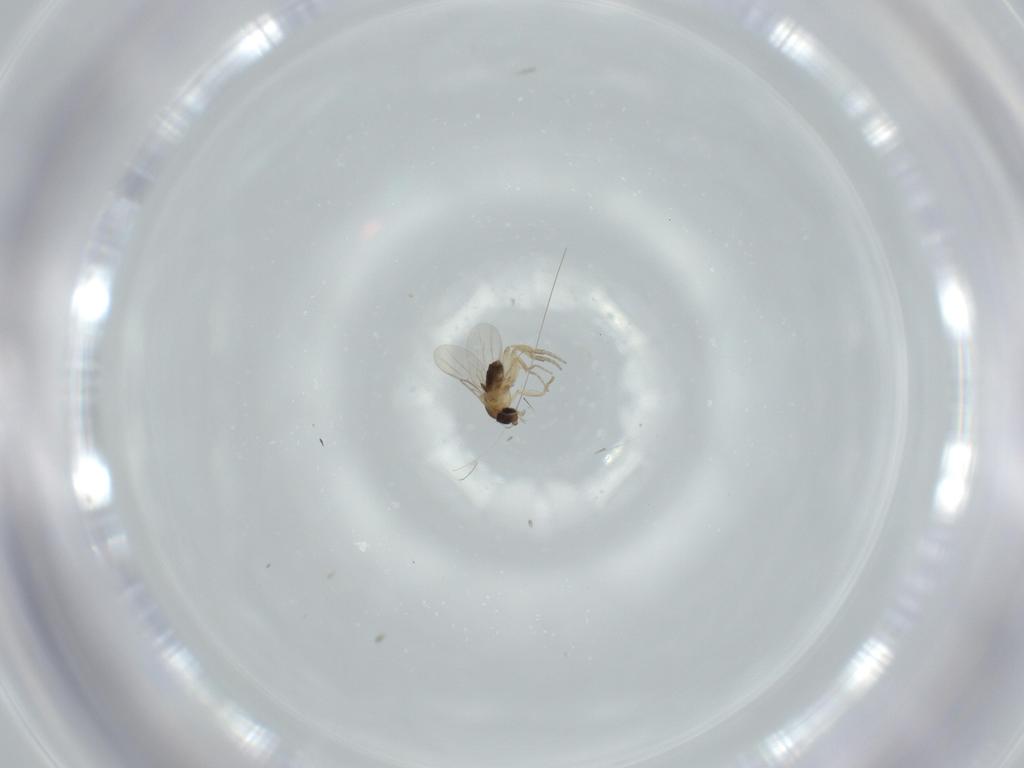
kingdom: Animalia
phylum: Arthropoda
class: Insecta
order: Diptera
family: Phoridae
